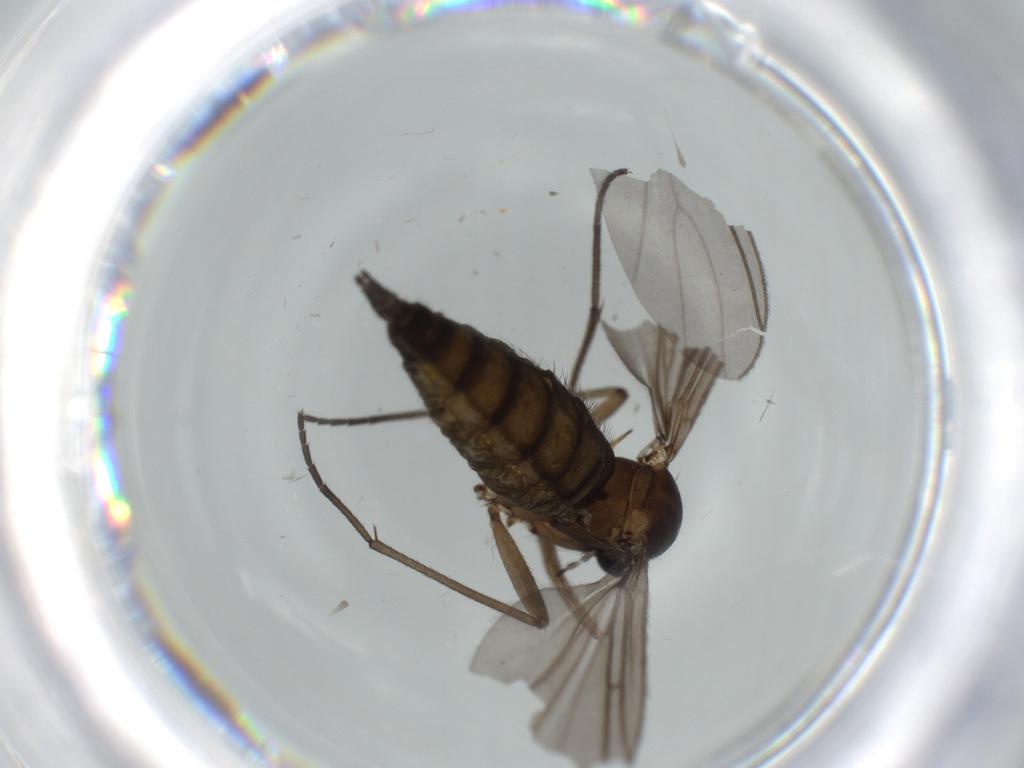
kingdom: Animalia
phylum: Arthropoda
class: Insecta
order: Diptera
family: Sciaridae
